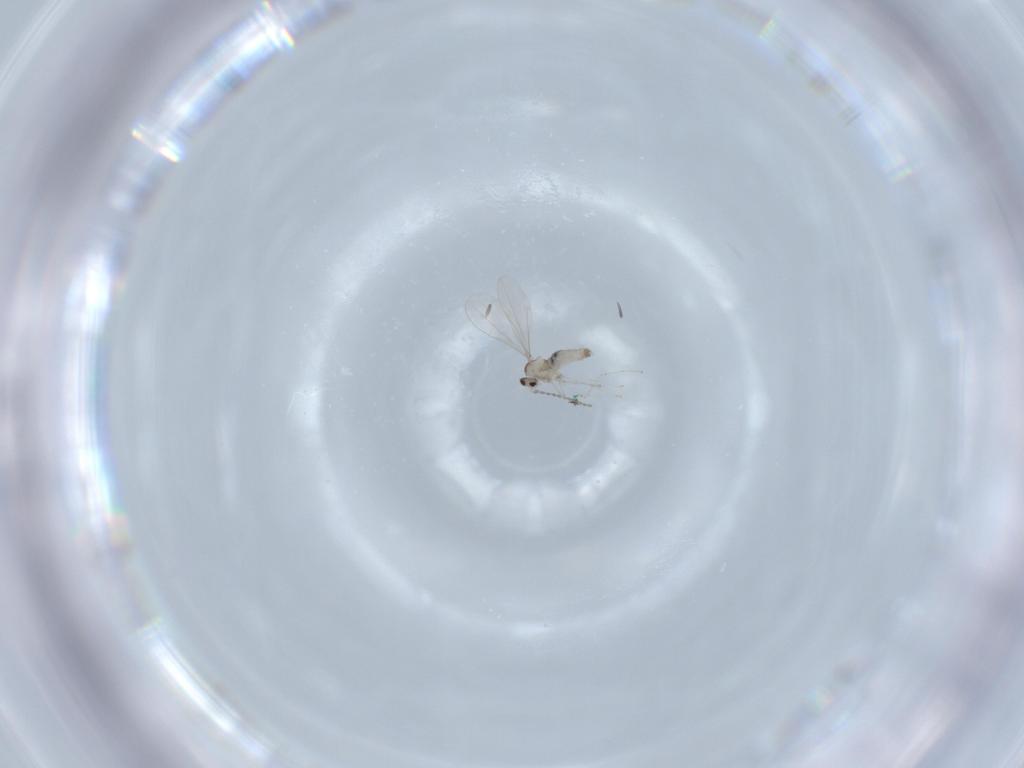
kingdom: Animalia
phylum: Arthropoda
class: Insecta
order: Diptera
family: Cecidomyiidae
